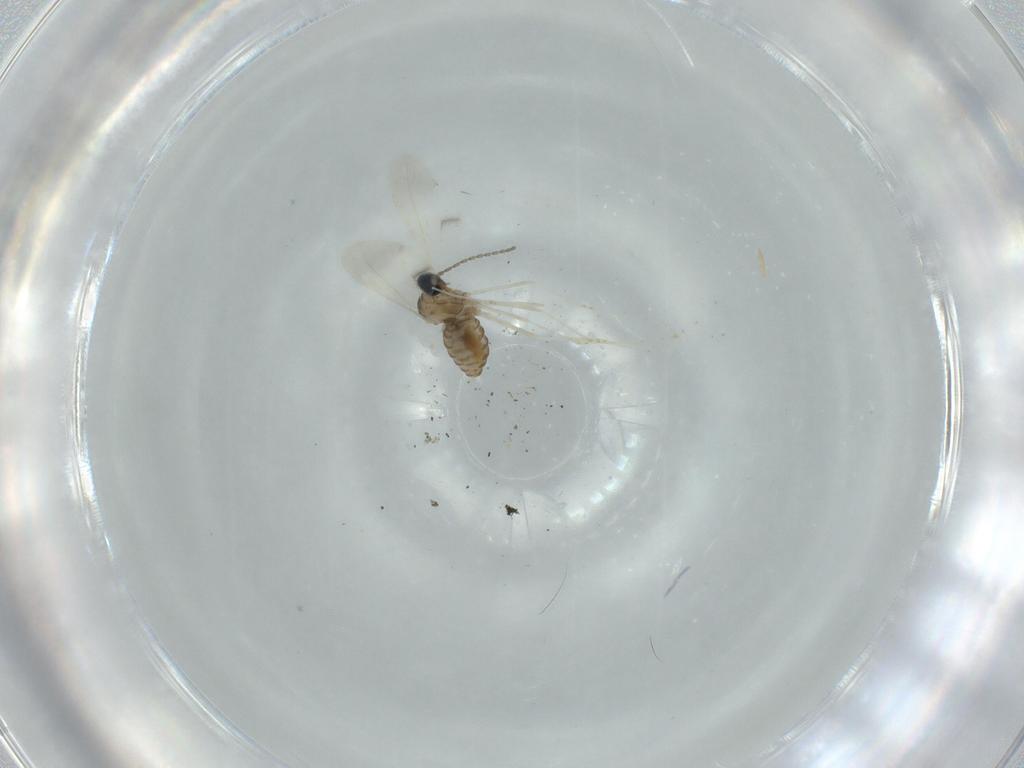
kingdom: Animalia
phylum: Arthropoda
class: Insecta
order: Diptera
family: Cecidomyiidae
